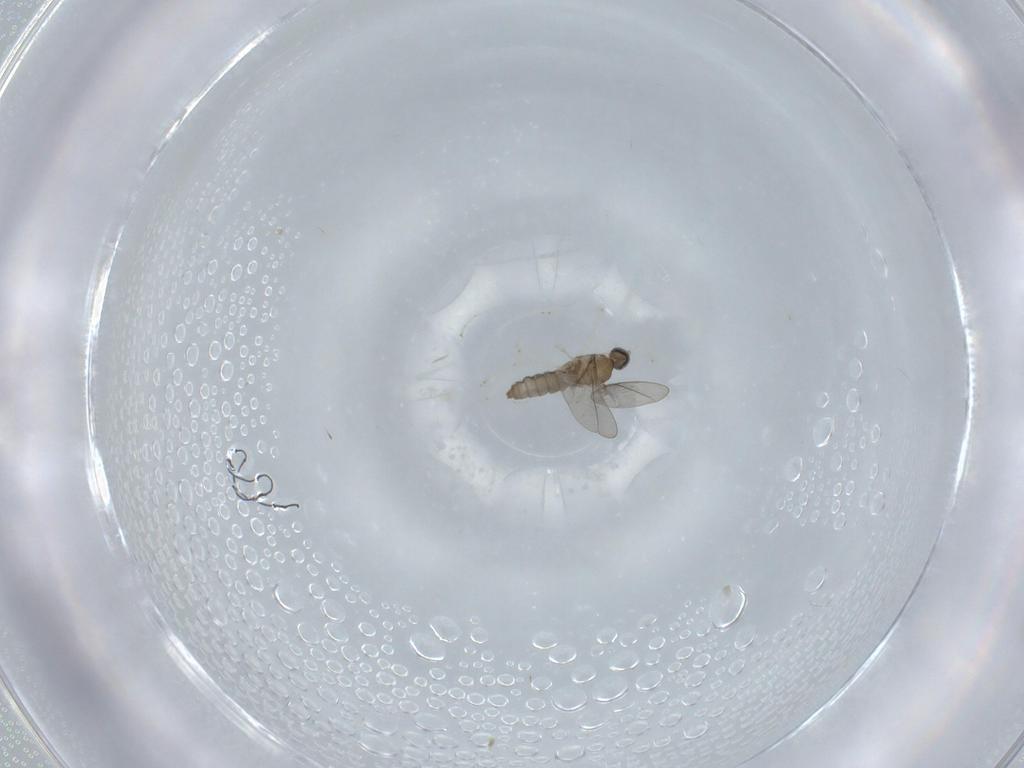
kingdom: Animalia
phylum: Arthropoda
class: Insecta
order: Diptera
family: Cecidomyiidae
